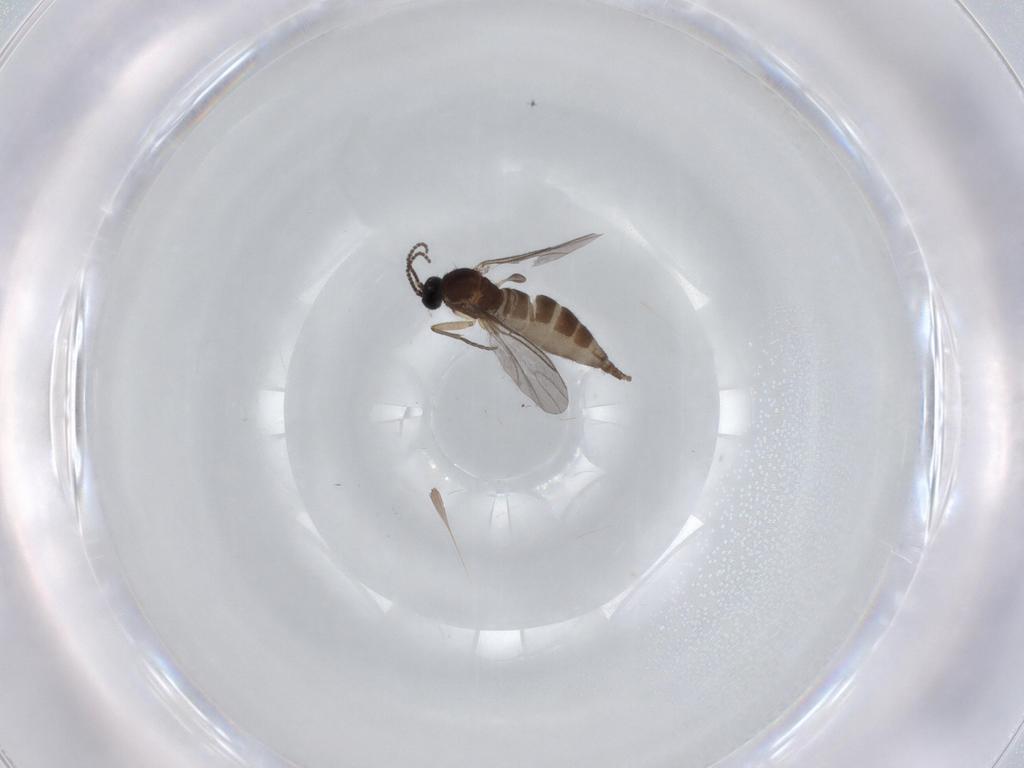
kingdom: Animalia
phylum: Arthropoda
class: Insecta
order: Diptera
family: Sciaridae
